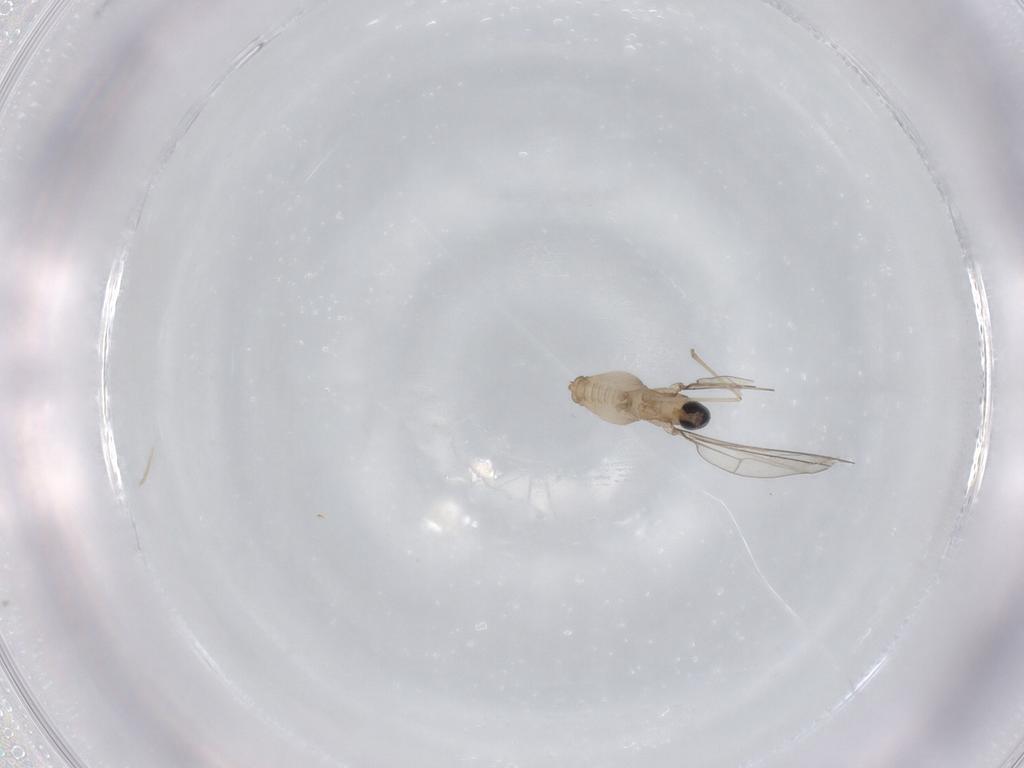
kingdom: Animalia
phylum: Arthropoda
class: Insecta
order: Diptera
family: Cecidomyiidae
